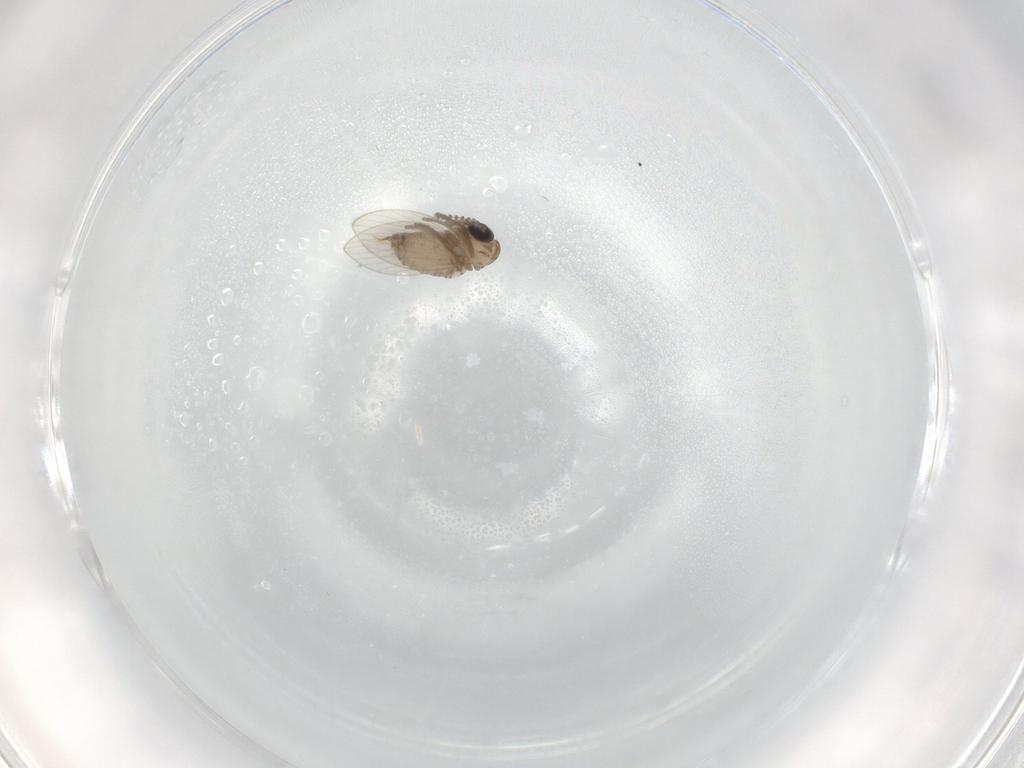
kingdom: Animalia
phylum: Arthropoda
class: Insecta
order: Diptera
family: Psychodidae
